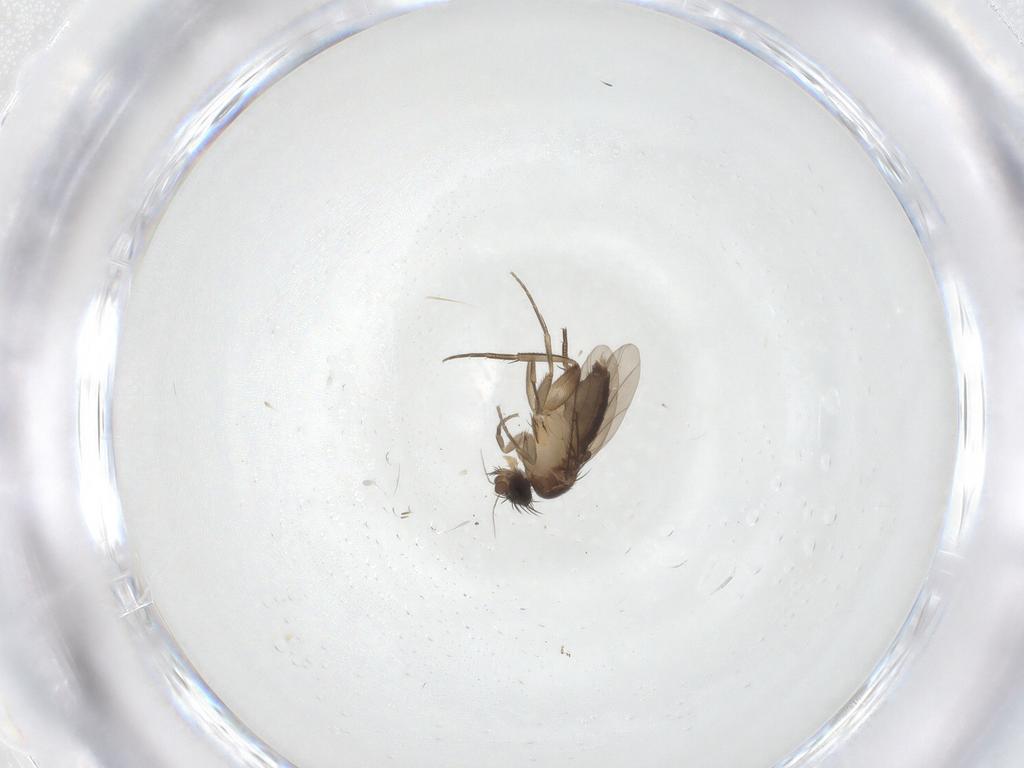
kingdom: Animalia
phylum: Arthropoda
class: Insecta
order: Diptera
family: Phoridae
